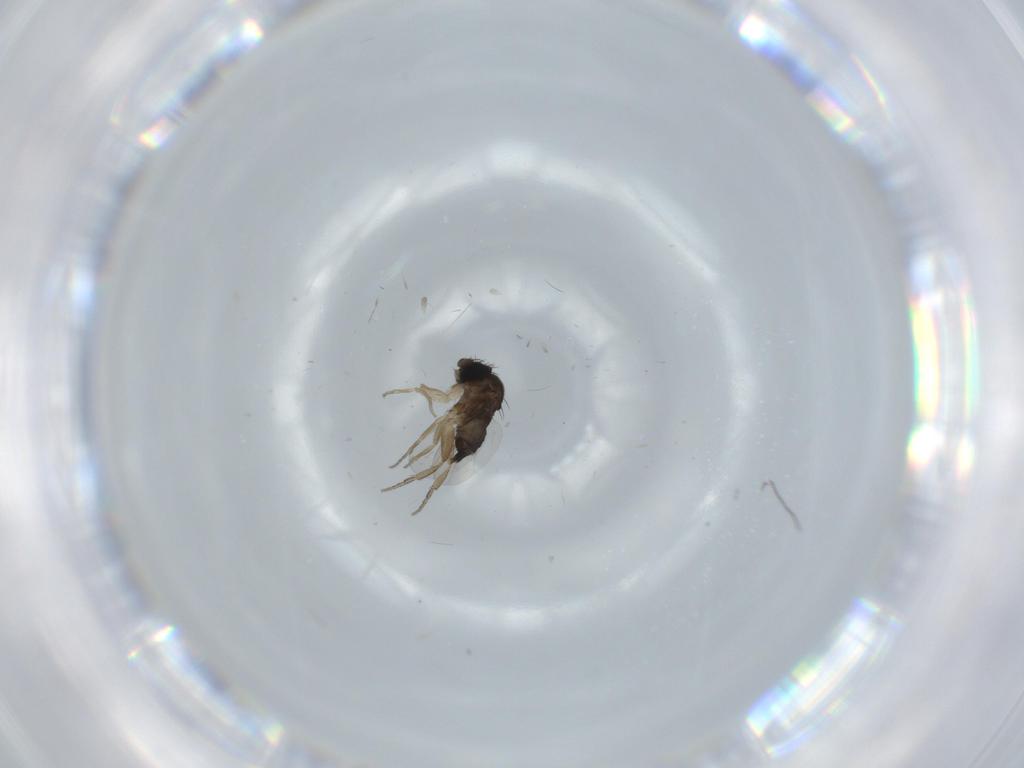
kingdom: Animalia
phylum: Arthropoda
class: Insecta
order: Diptera
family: Phoridae
